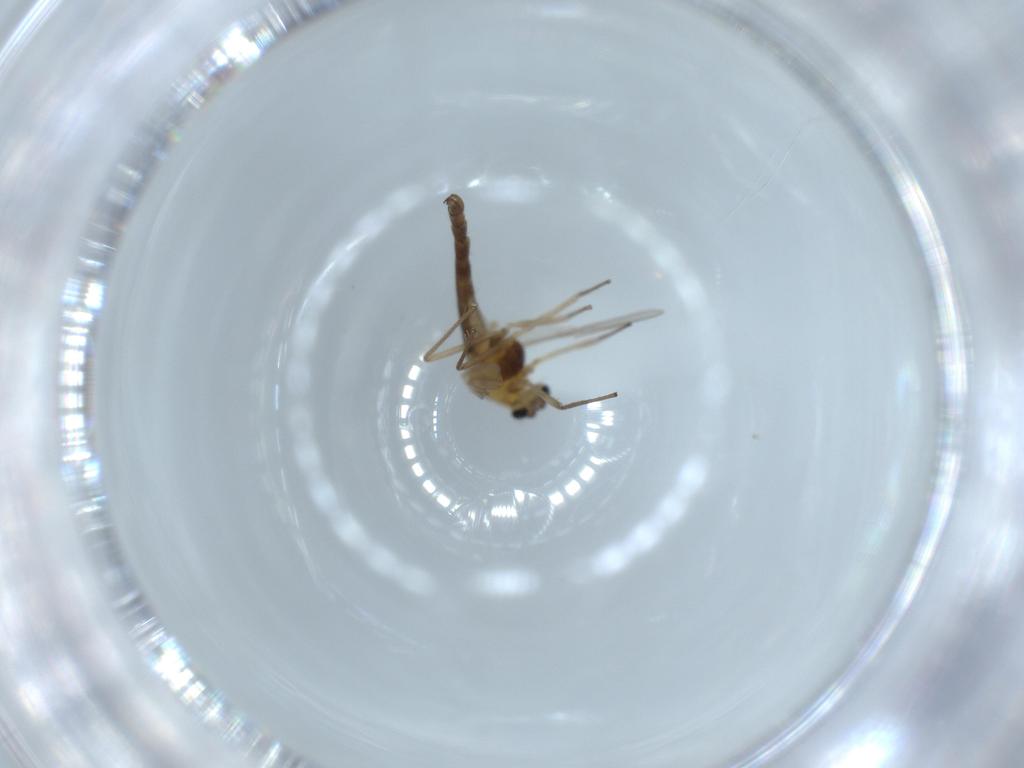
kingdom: Animalia
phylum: Arthropoda
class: Insecta
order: Diptera
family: Chironomidae
